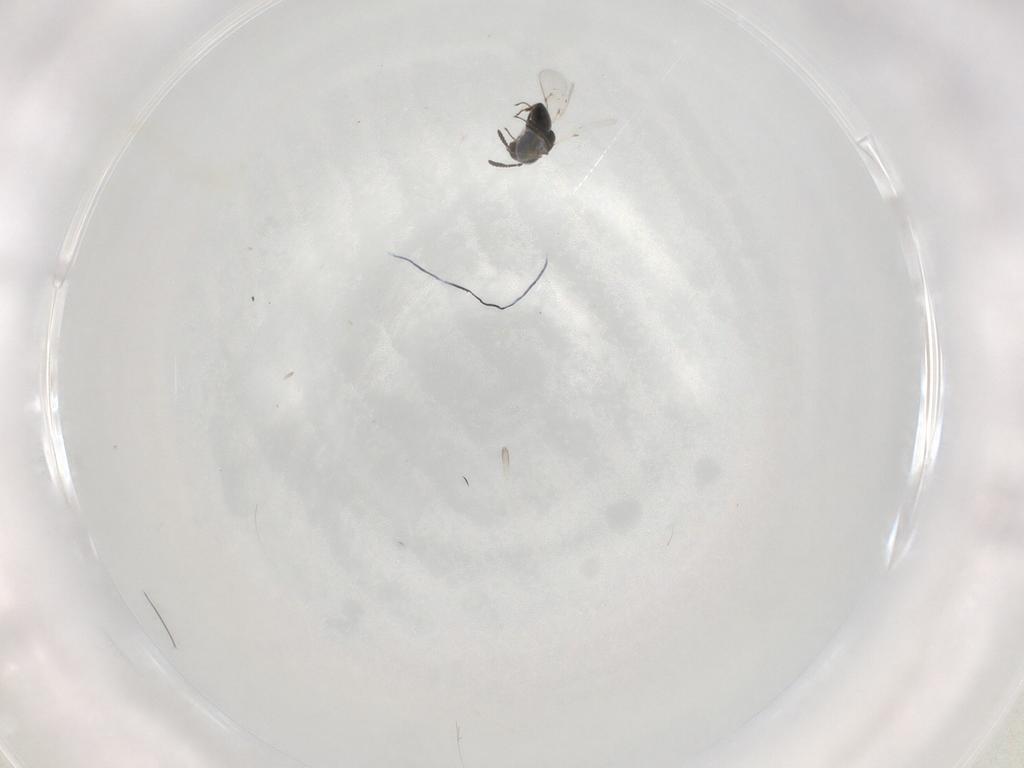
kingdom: Animalia
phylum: Arthropoda
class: Insecta
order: Hymenoptera
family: Scelionidae
